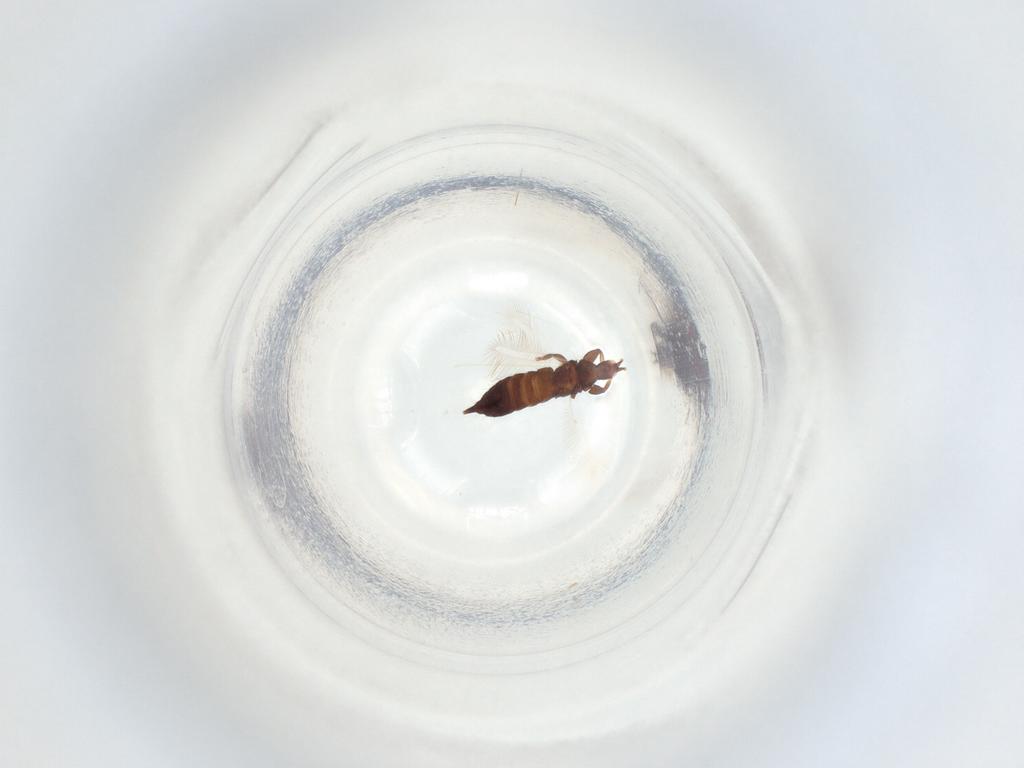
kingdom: Animalia
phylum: Arthropoda
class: Insecta
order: Thysanoptera
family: Phlaeothripidae
